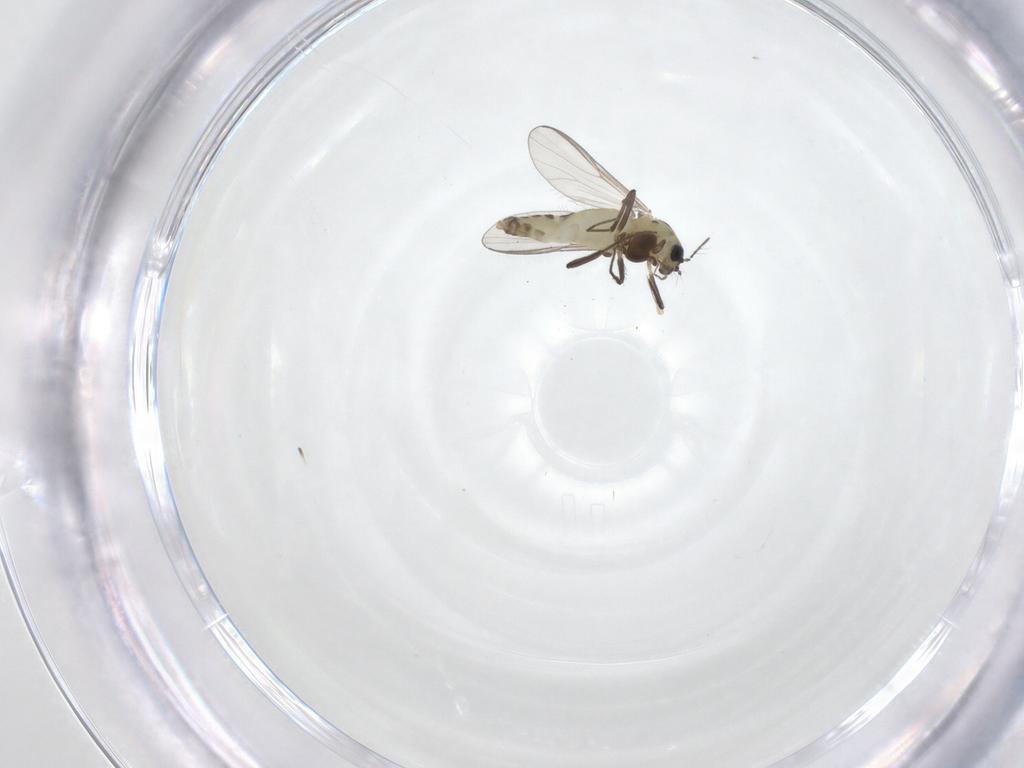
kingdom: Animalia
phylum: Arthropoda
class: Insecta
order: Diptera
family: Chironomidae
